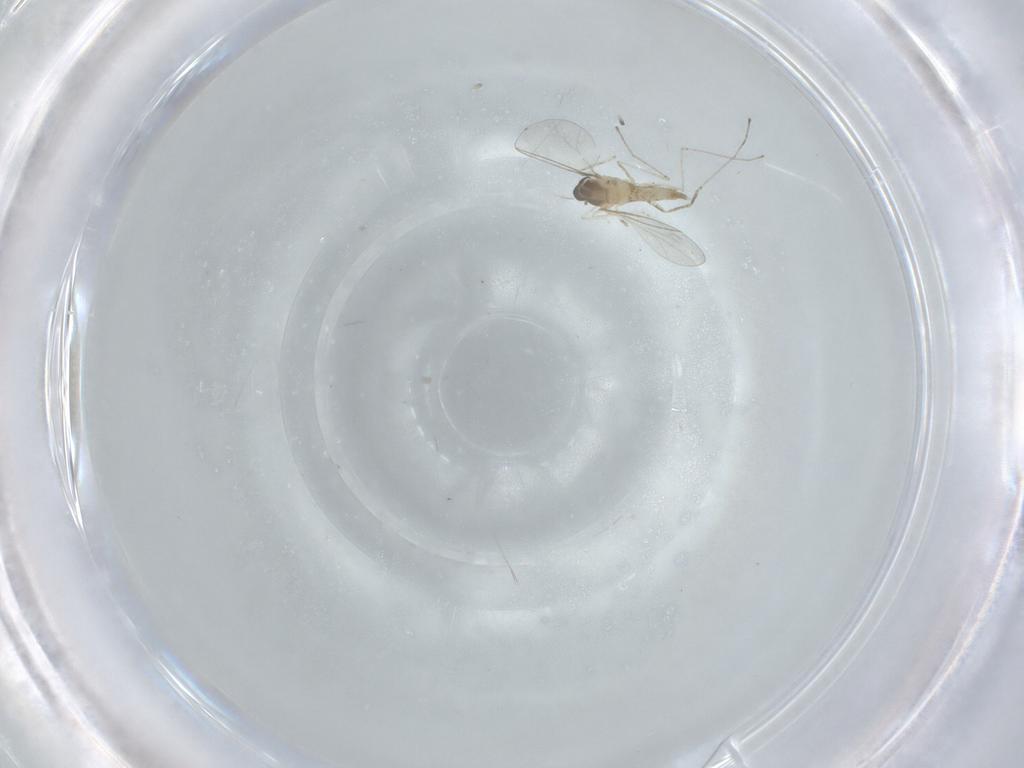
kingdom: Animalia
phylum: Arthropoda
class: Insecta
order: Diptera
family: Cecidomyiidae
